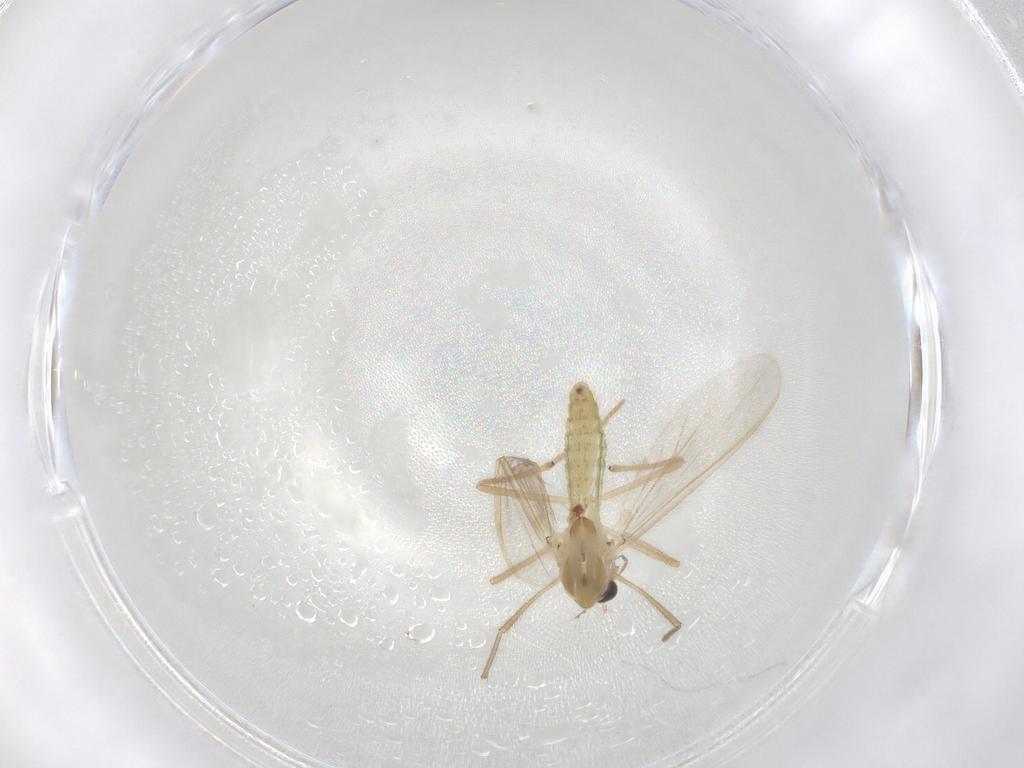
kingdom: Animalia
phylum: Arthropoda
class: Insecta
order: Diptera
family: Chironomidae
